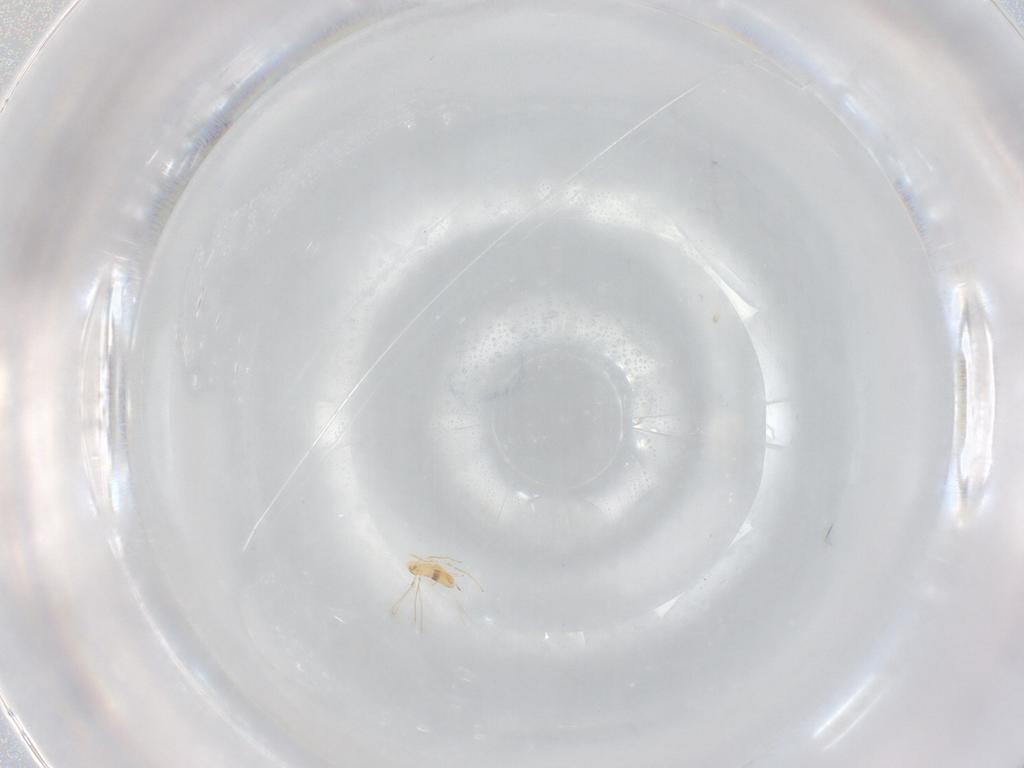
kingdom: Animalia
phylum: Arthropoda
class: Insecta
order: Hymenoptera
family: Mymaridae
